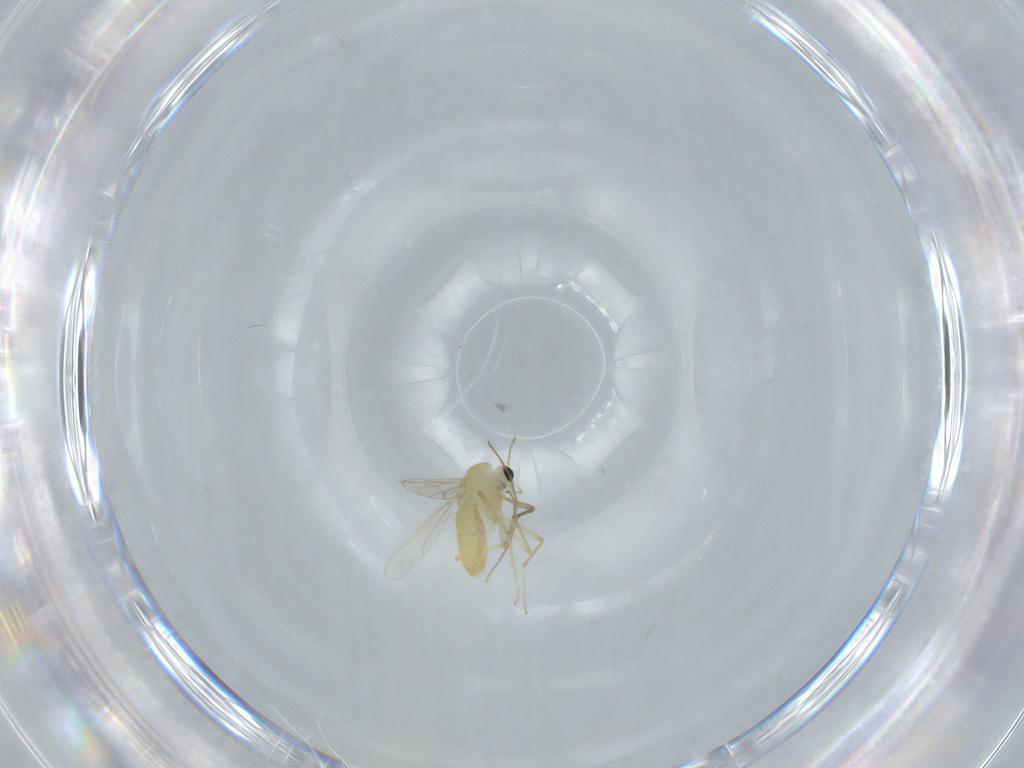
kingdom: Animalia
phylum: Arthropoda
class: Insecta
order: Diptera
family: Chironomidae
